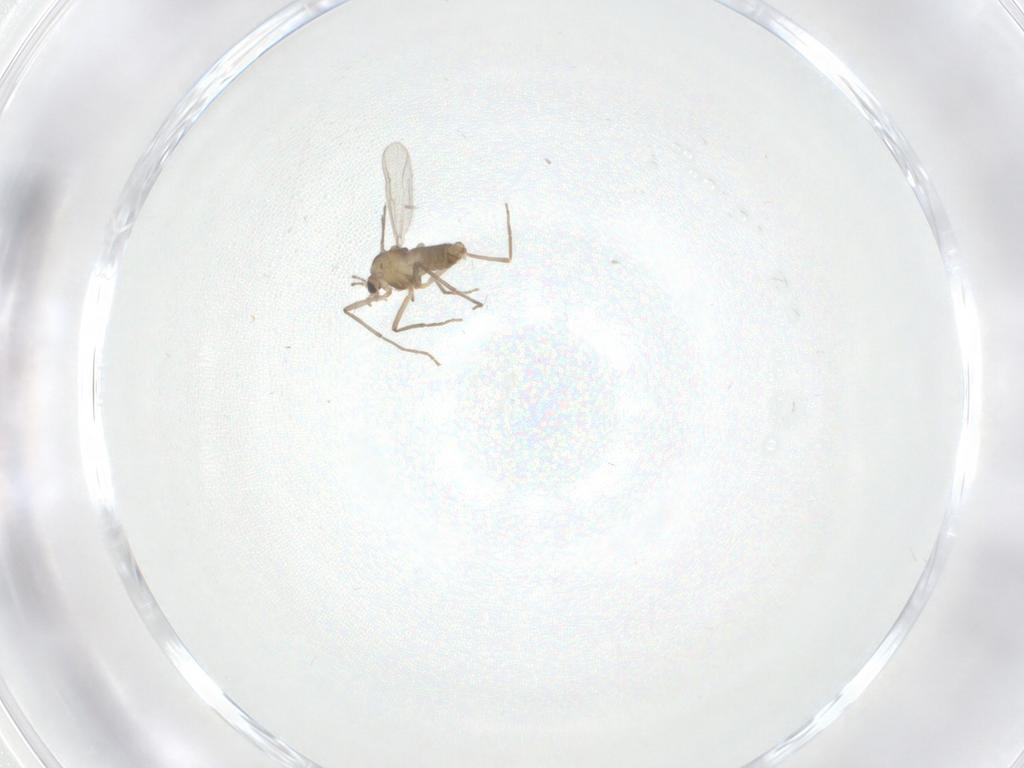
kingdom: Animalia
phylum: Arthropoda
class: Insecta
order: Diptera
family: Chironomidae
